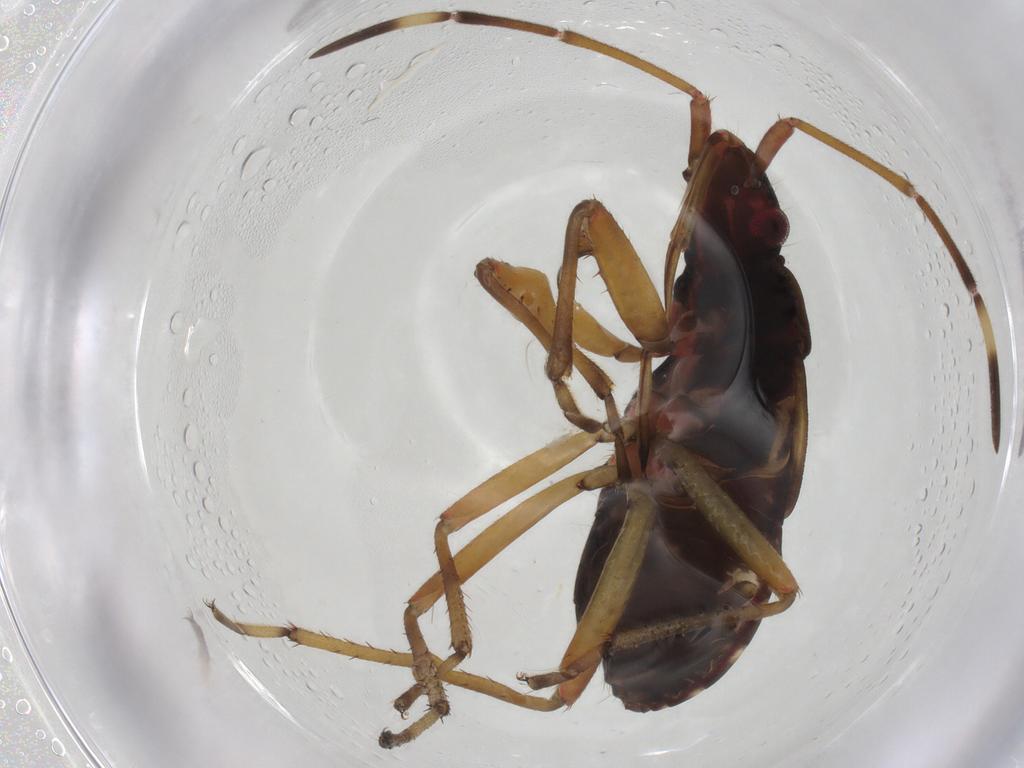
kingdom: Animalia
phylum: Arthropoda
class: Insecta
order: Hemiptera
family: Rhyparochromidae
